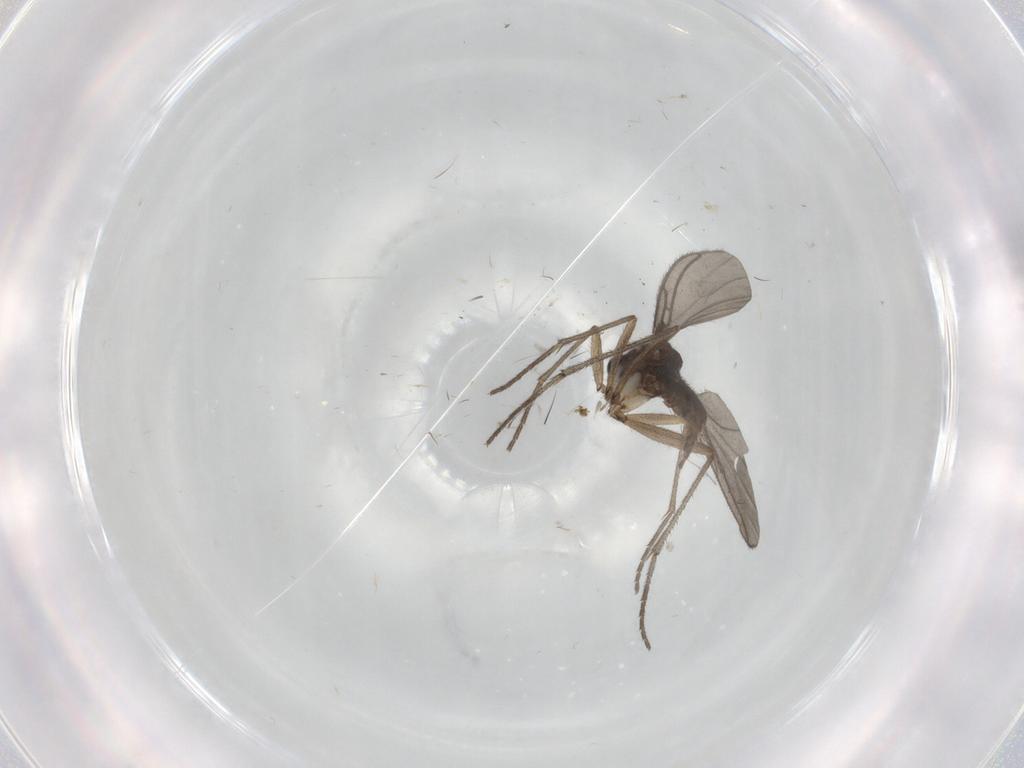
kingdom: Animalia
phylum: Arthropoda
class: Insecta
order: Diptera
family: Sciaridae
